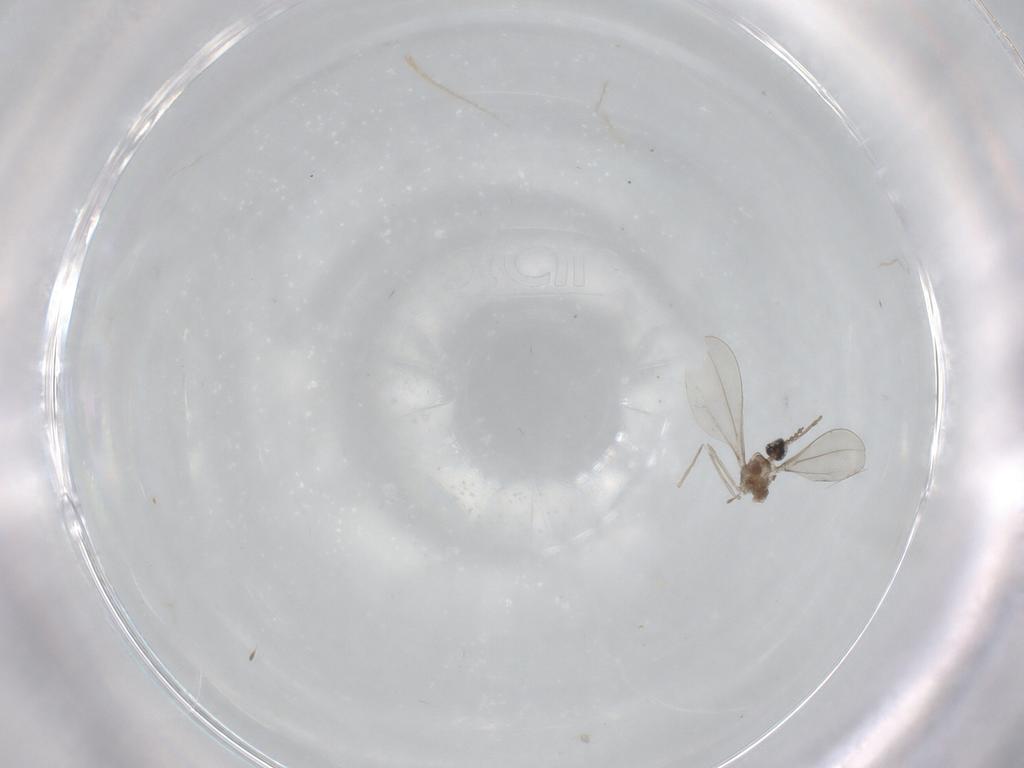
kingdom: Animalia
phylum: Arthropoda
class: Insecta
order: Diptera
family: Cecidomyiidae
